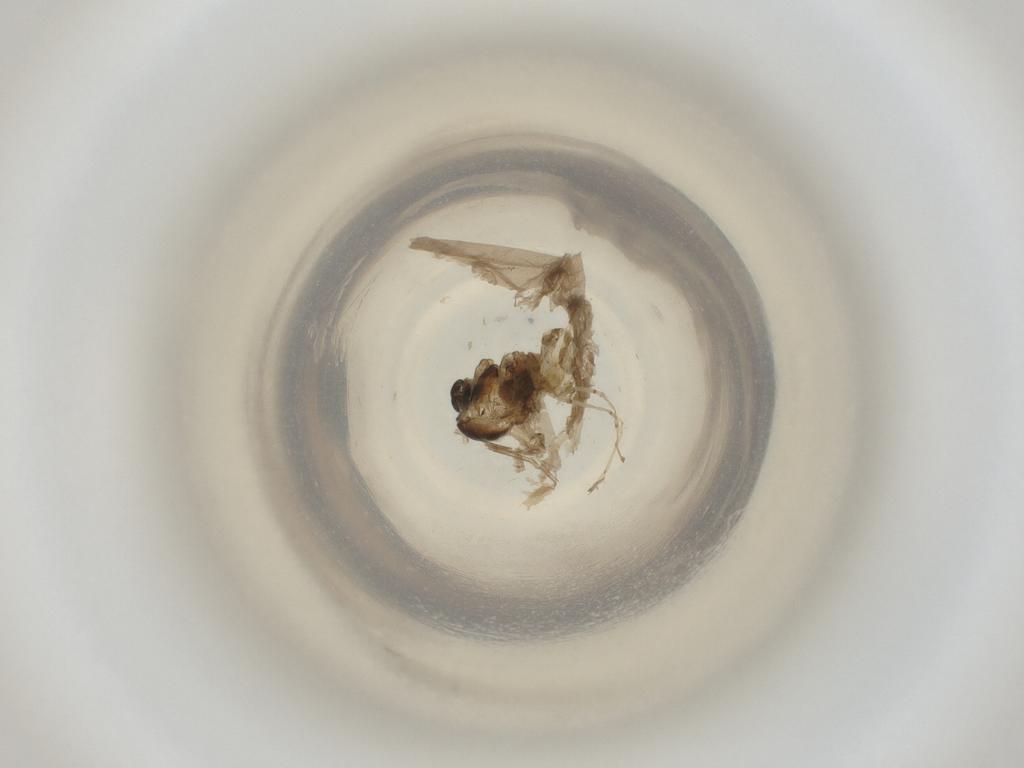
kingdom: Animalia
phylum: Arthropoda
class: Insecta
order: Diptera
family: Cecidomyiidae
